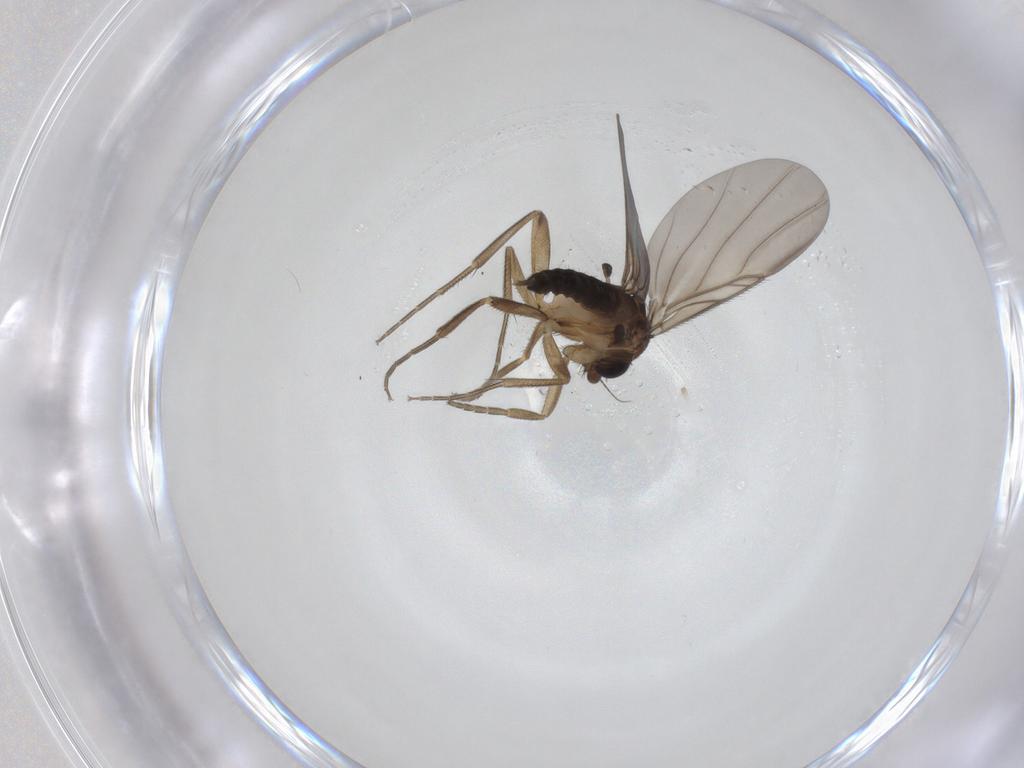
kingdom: Animalia
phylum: Arthropoda
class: Insecta
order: Diptera
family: Phoridae
